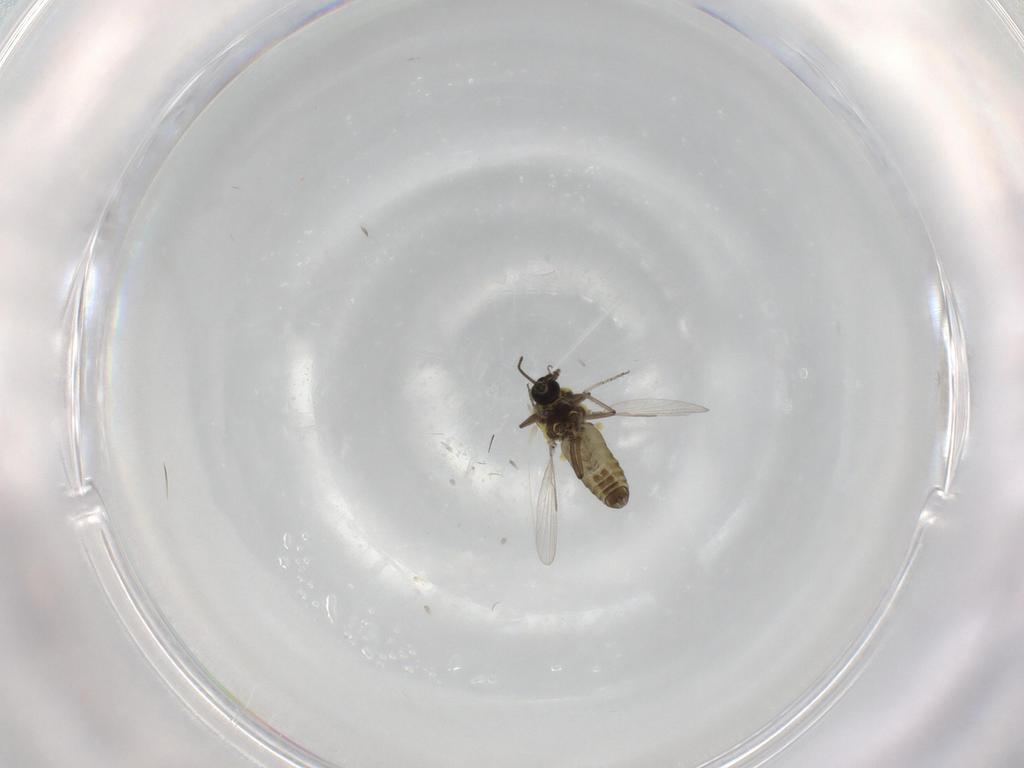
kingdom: Animalia
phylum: Arthropoda
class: Insecta
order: Diptera
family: Ceratopogonidae
